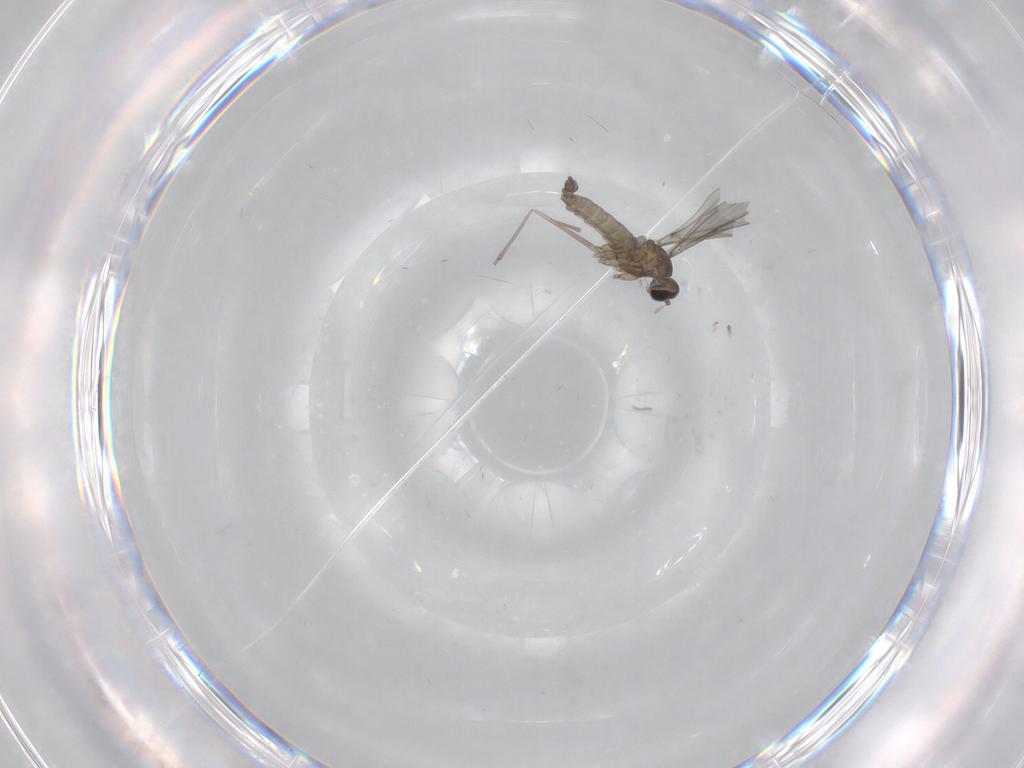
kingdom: Animalia
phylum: Arthropoda
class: Insecta
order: Diptera
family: Cecidomyiidae
